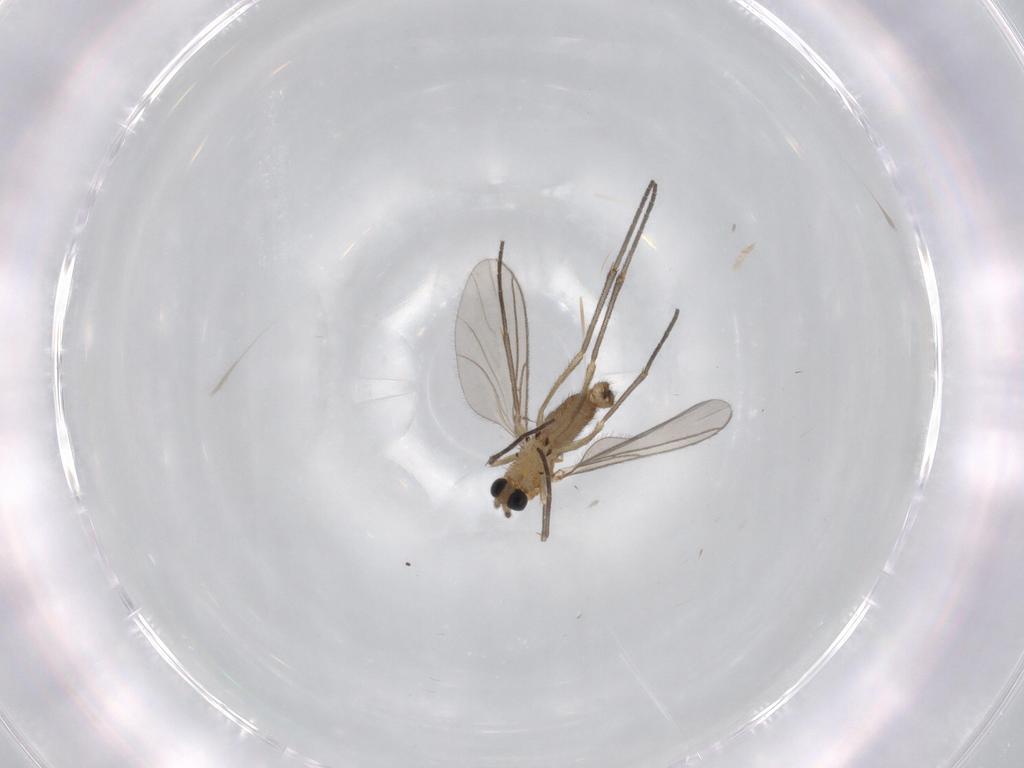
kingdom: Animalia
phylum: Arthropoda
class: Insecta
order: Diptera
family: Sciaridae
